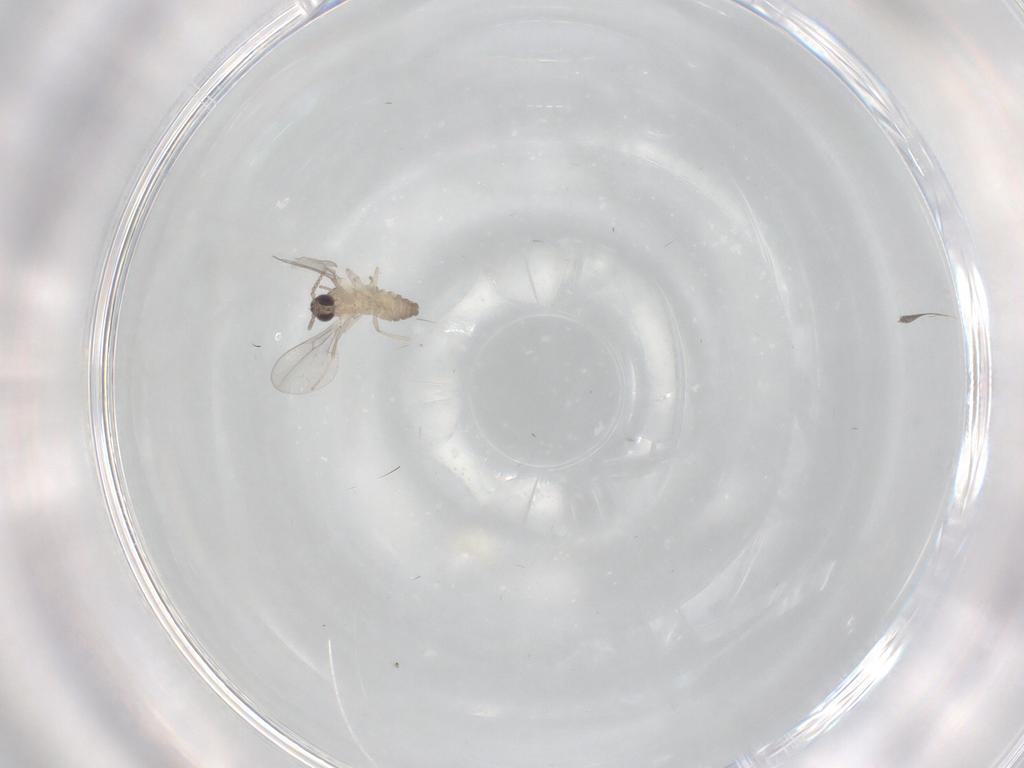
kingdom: Animalia
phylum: Arthropoda
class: Insecta
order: Diptera
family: Cecidomyiidae
